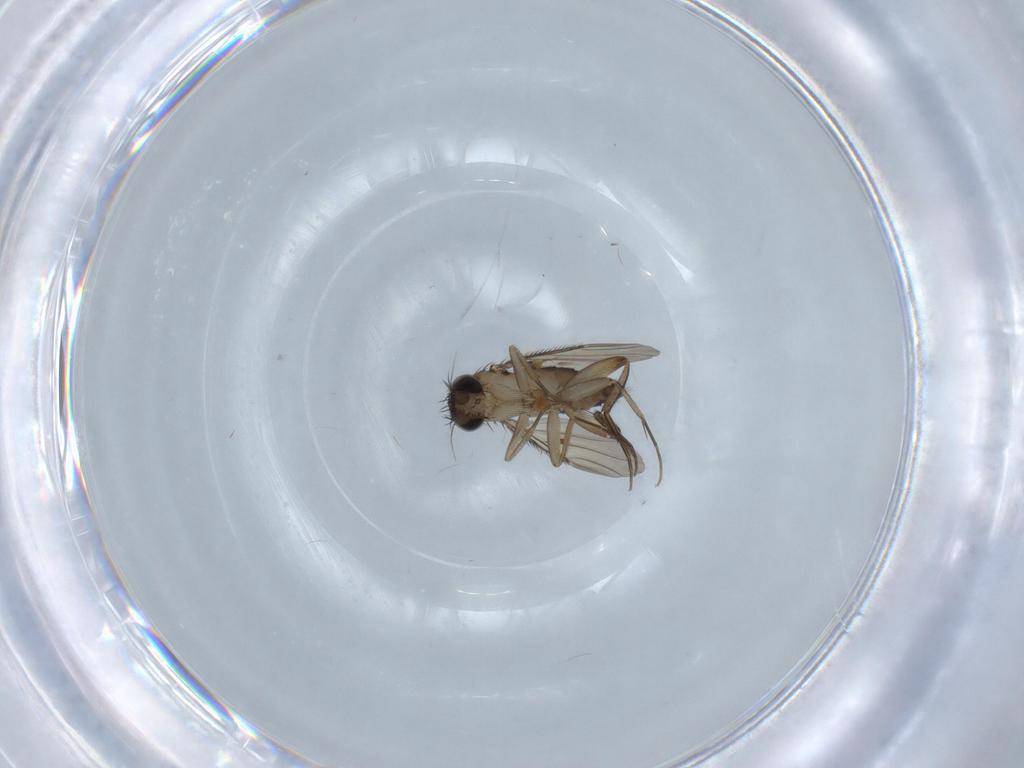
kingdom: Animalia
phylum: Arthropoda
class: Insecta
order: Diptera
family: Phoridae
